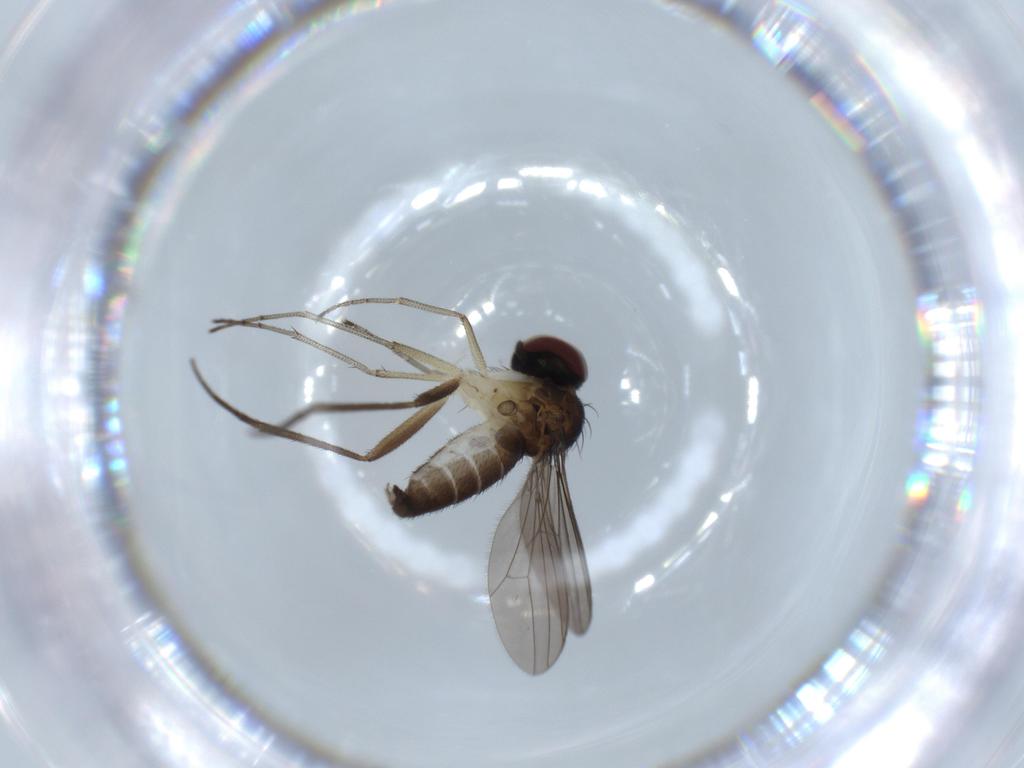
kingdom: Animalia
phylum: Arthropoda
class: Insecta
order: Diptera
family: Dolichopodidae
